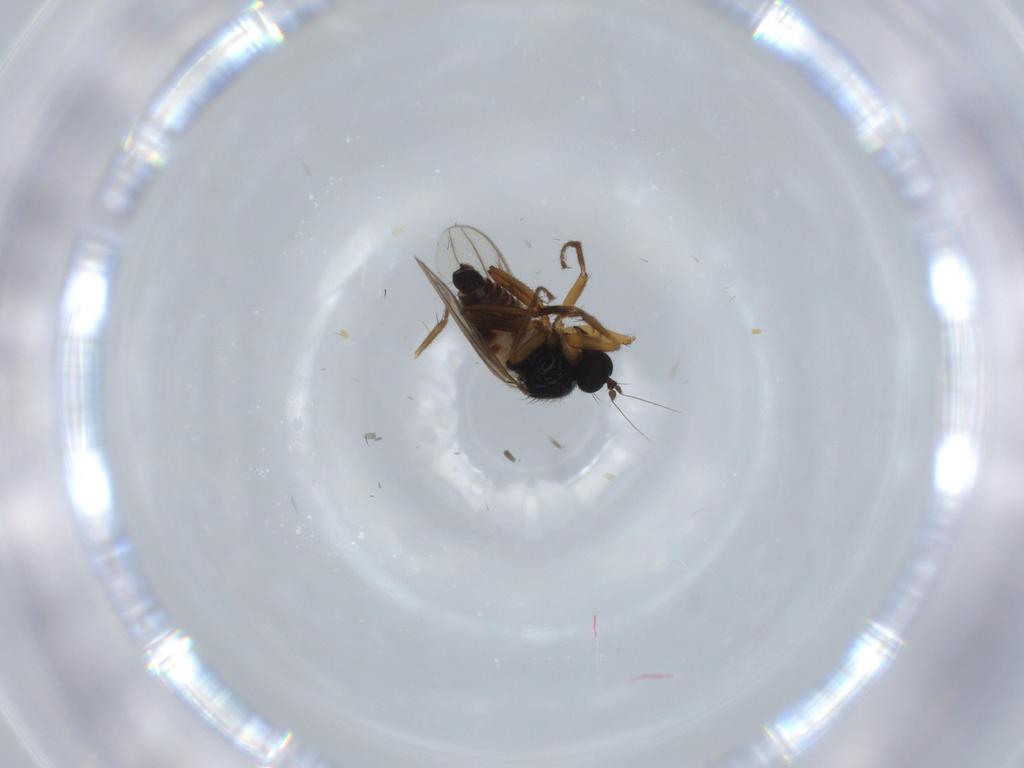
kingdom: Animalia
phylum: Arthropoda
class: Insecta
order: Diptera
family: Hybotidae
